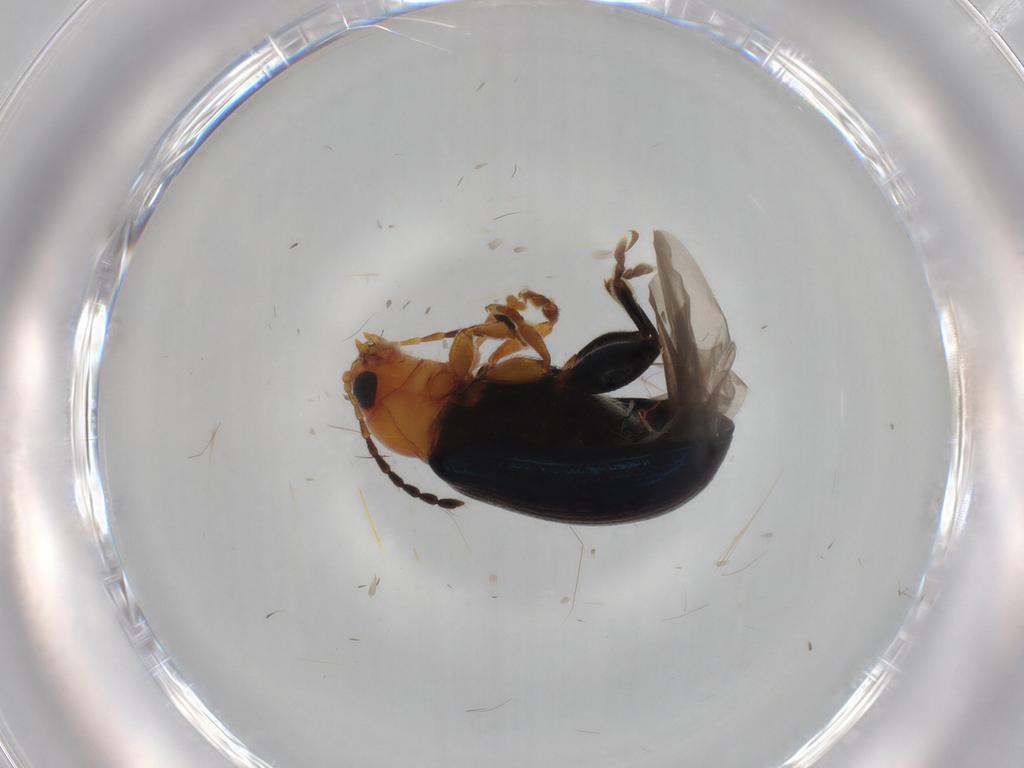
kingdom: Animalia
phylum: Arthropoda
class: Insecta
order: Coleoptera
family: Chrysomelidae
